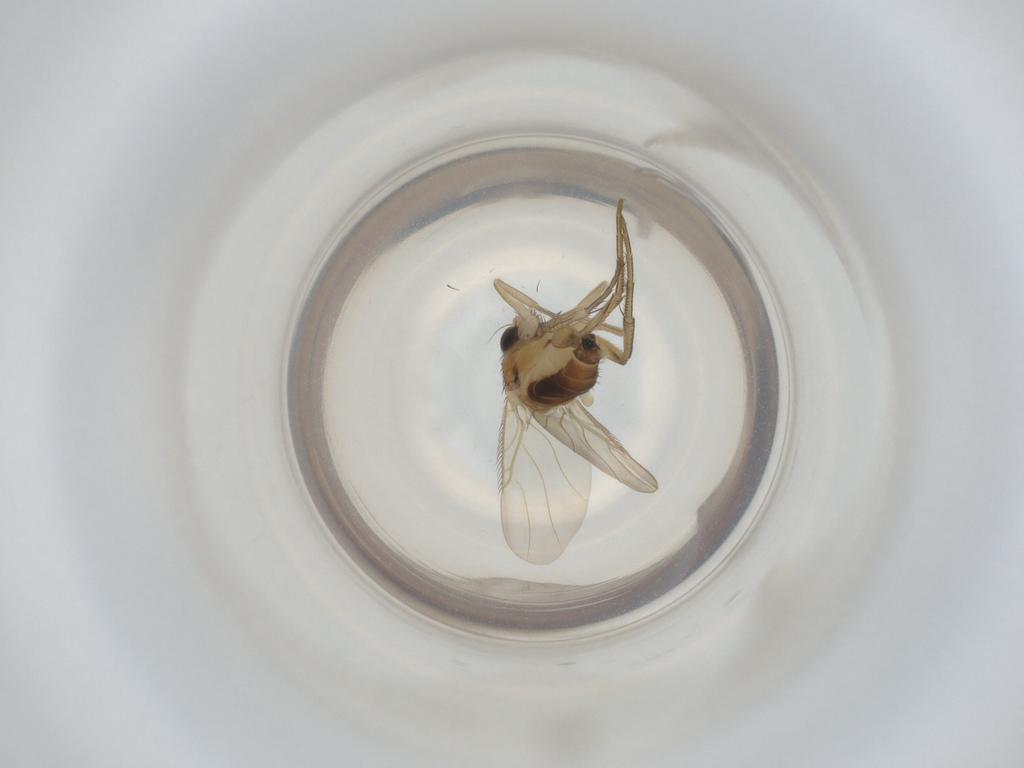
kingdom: Animalia
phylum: Arthropoda
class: Insecta
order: Diptera
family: Phoridae
